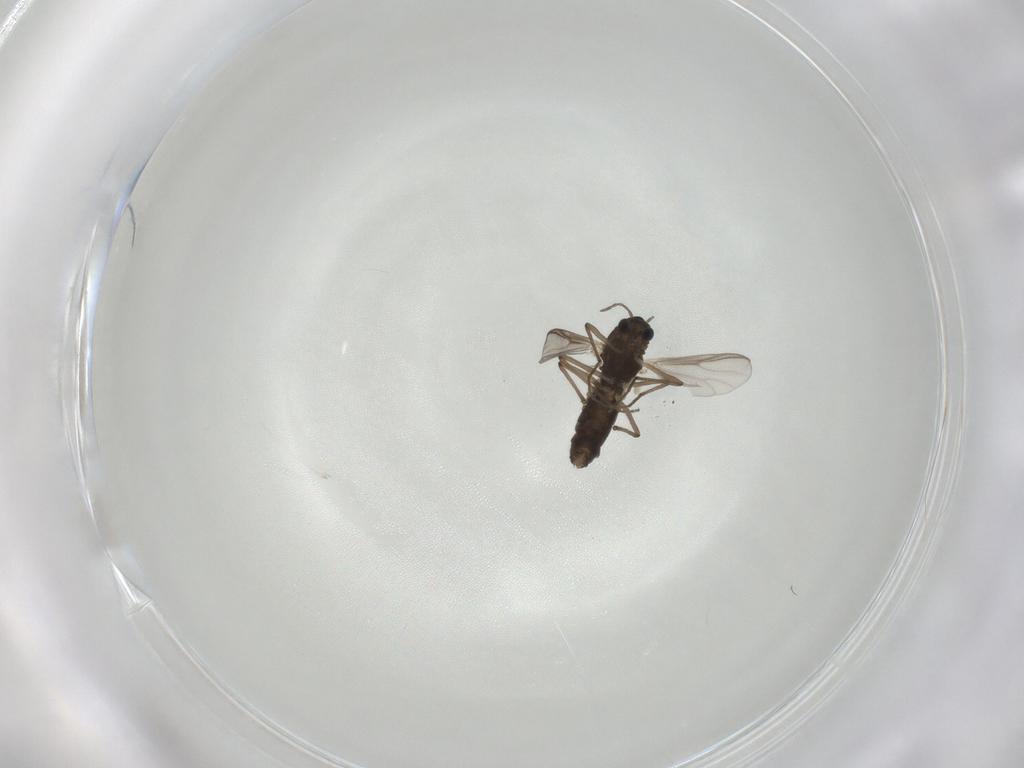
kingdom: Animalia
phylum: Arthropoda
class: Insecta
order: Diptera
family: Chironomidae
